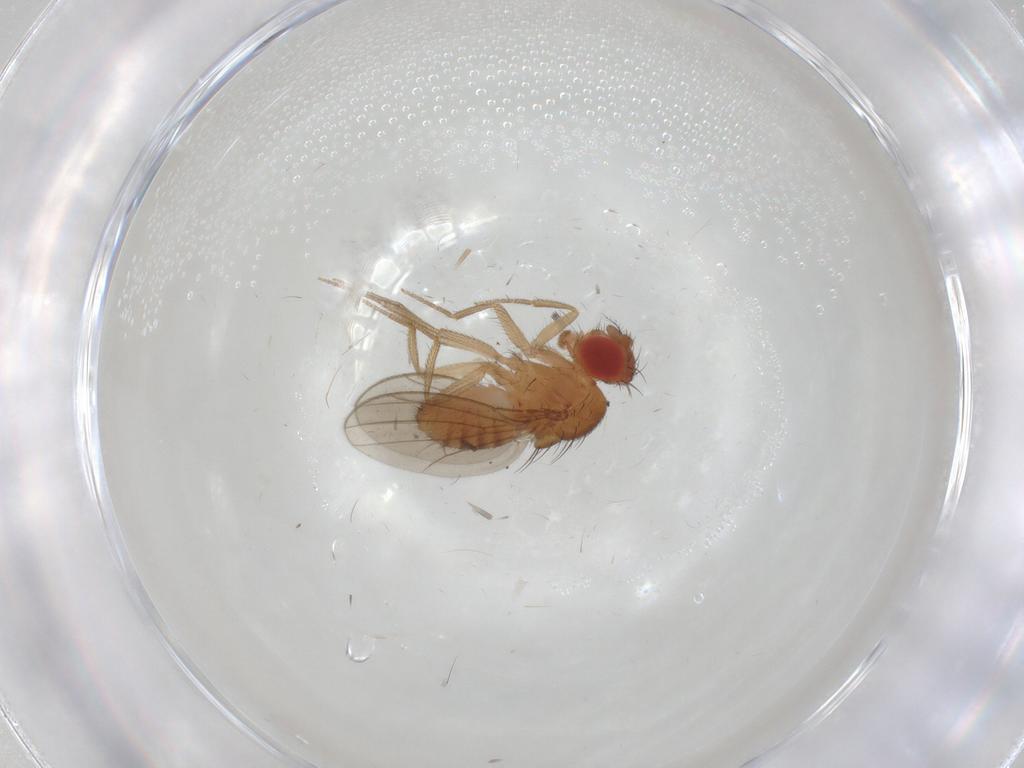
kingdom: Animalia
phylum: Arthropoda
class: Insecta
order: Diptera
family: Drosophilidae
